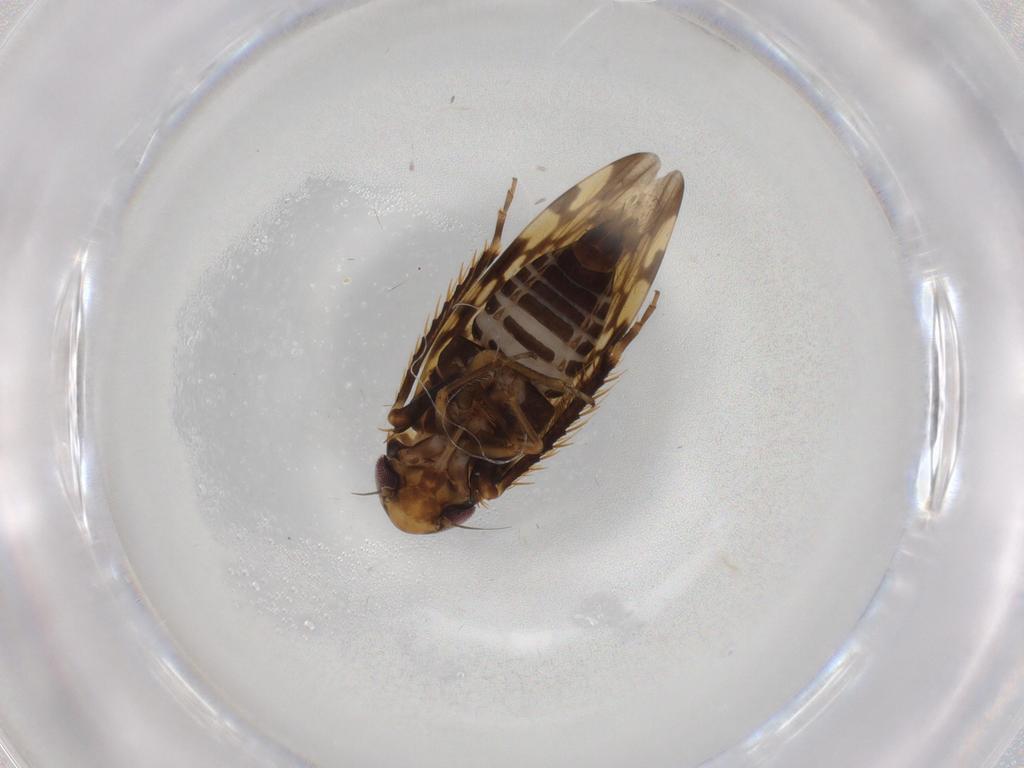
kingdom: Animalia
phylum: Arthropoda
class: Insecta
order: Hemiptera
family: Cicadellidae
